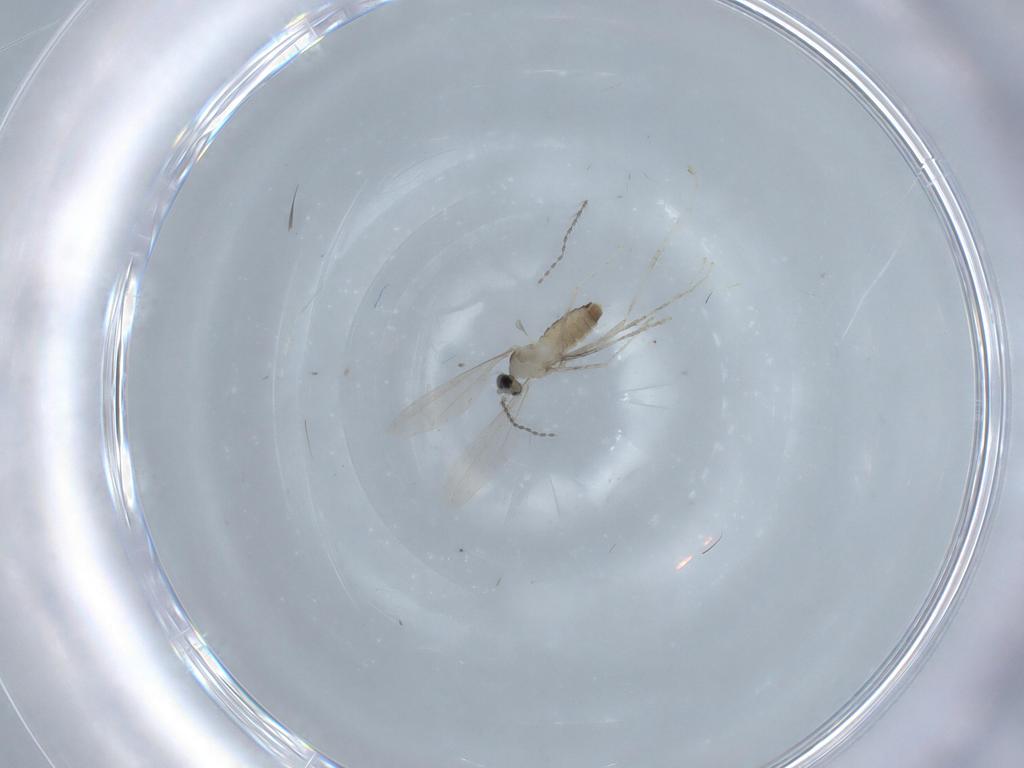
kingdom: Animalia
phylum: Arthropoda
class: Insecta
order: Diptera
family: Cecidomyiidae
